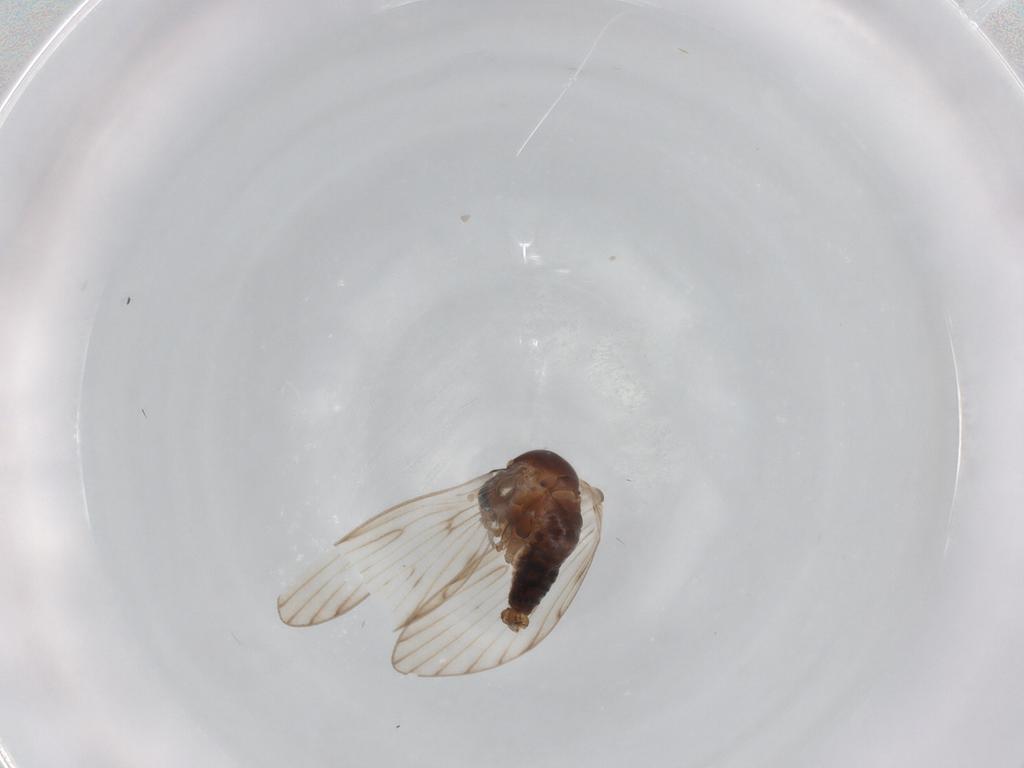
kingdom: Animalia
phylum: Arthropoda
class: Insecta
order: Diptera
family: Psychodidae
